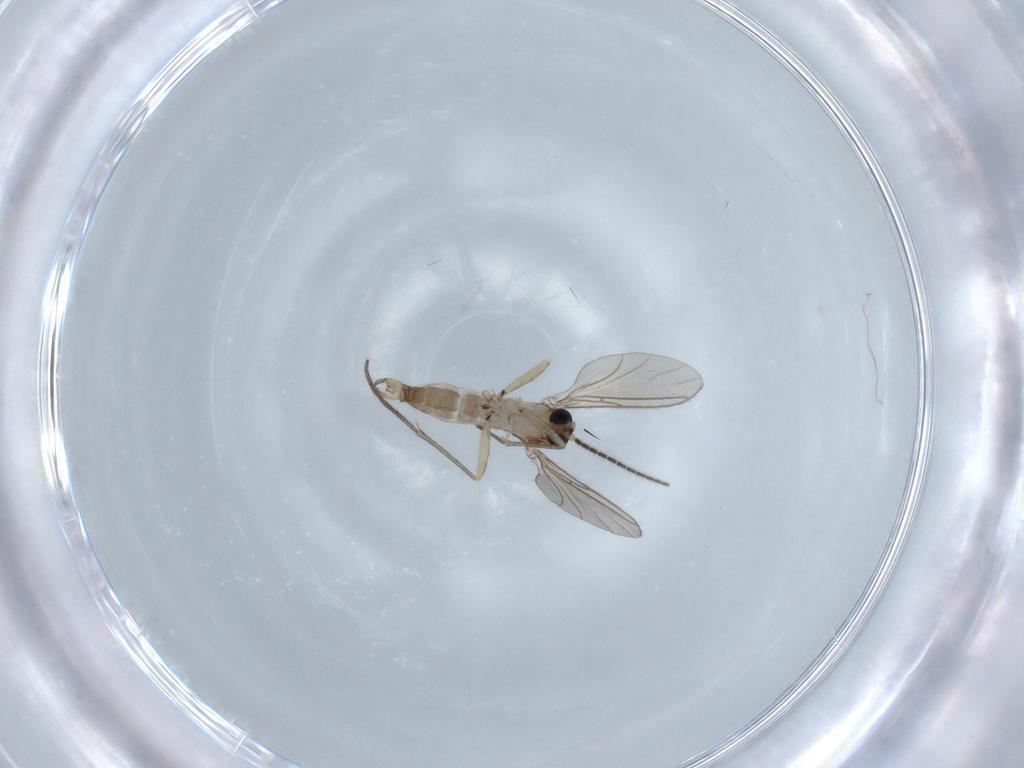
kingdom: Animalia
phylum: Arthropoda
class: Insecta
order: Diptera
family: Sciaridae
